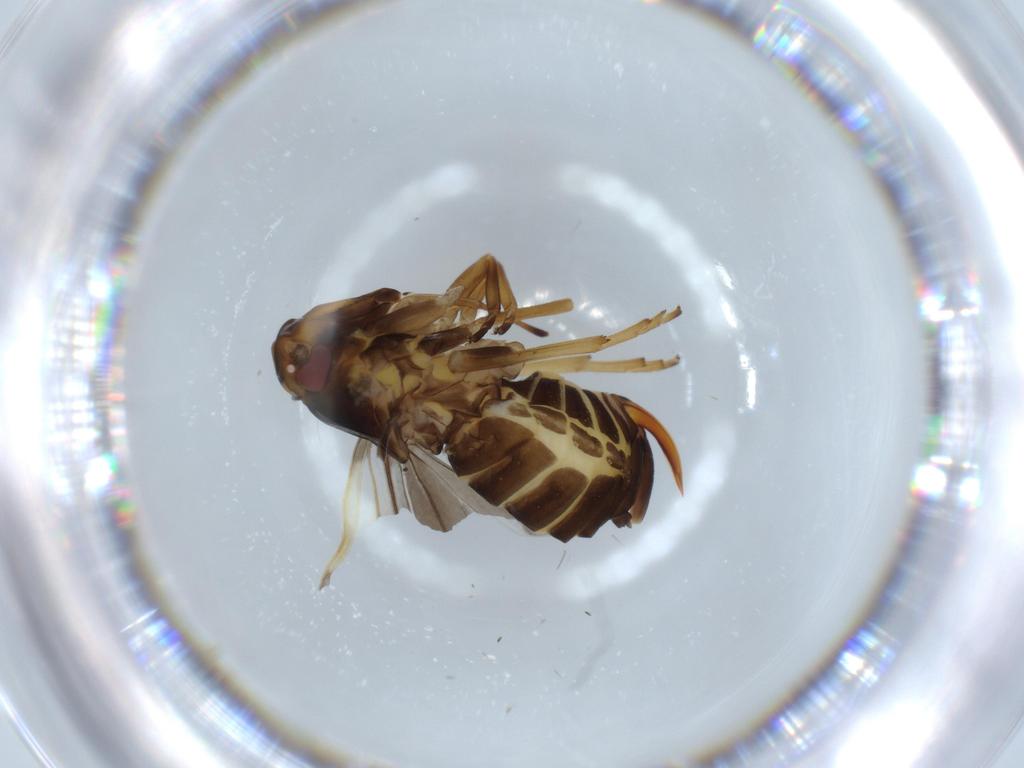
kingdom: Animalia
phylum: Arthropoda
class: Insecta
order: Hemiptera
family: Cixiidae
